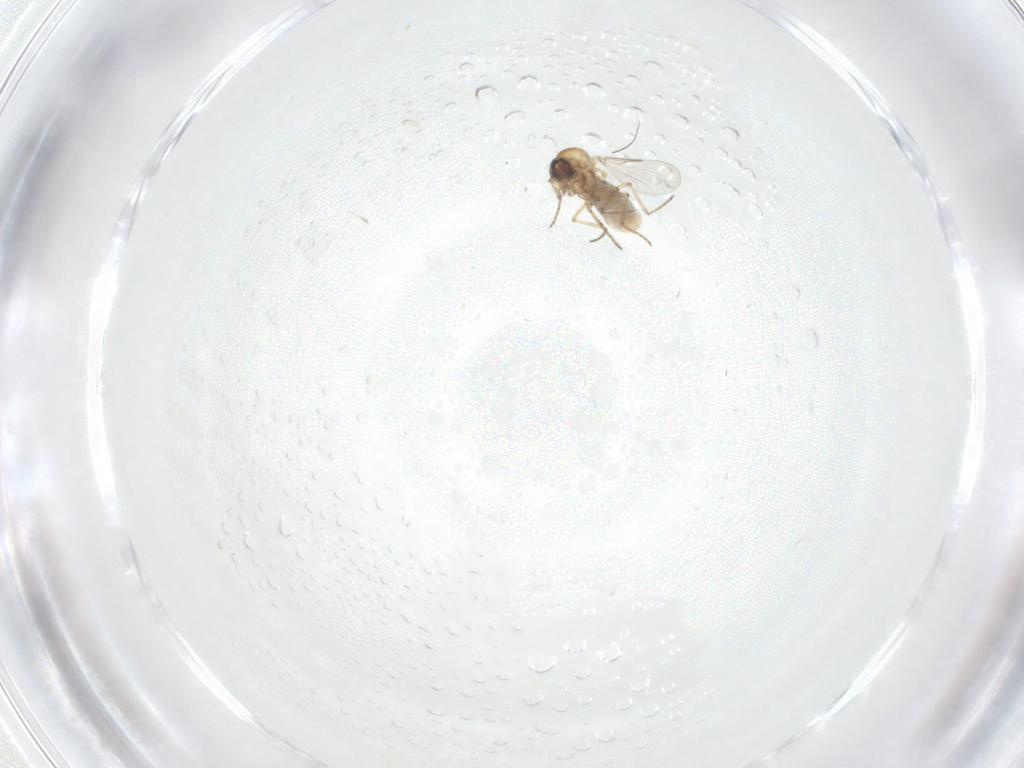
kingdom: Animalia
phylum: Arthropoda
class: Insecta
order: Diptera
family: Ceratopogonidae
